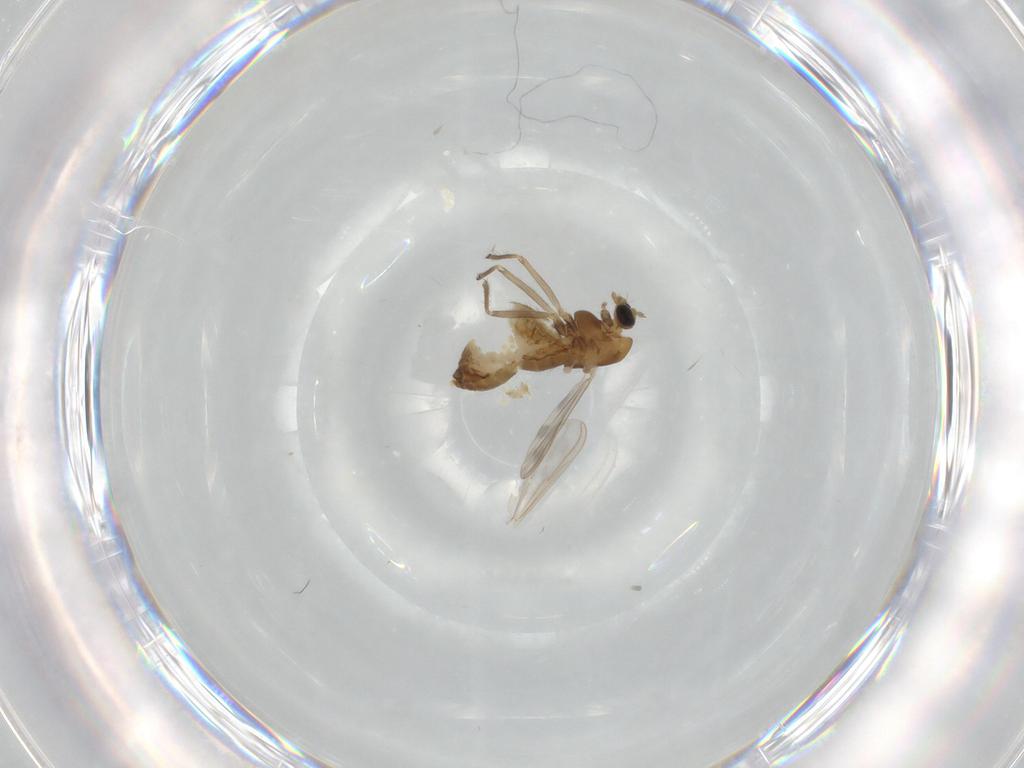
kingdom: Animalia
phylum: Arthropoda
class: Insecta
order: Diptera
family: Chironomidae
